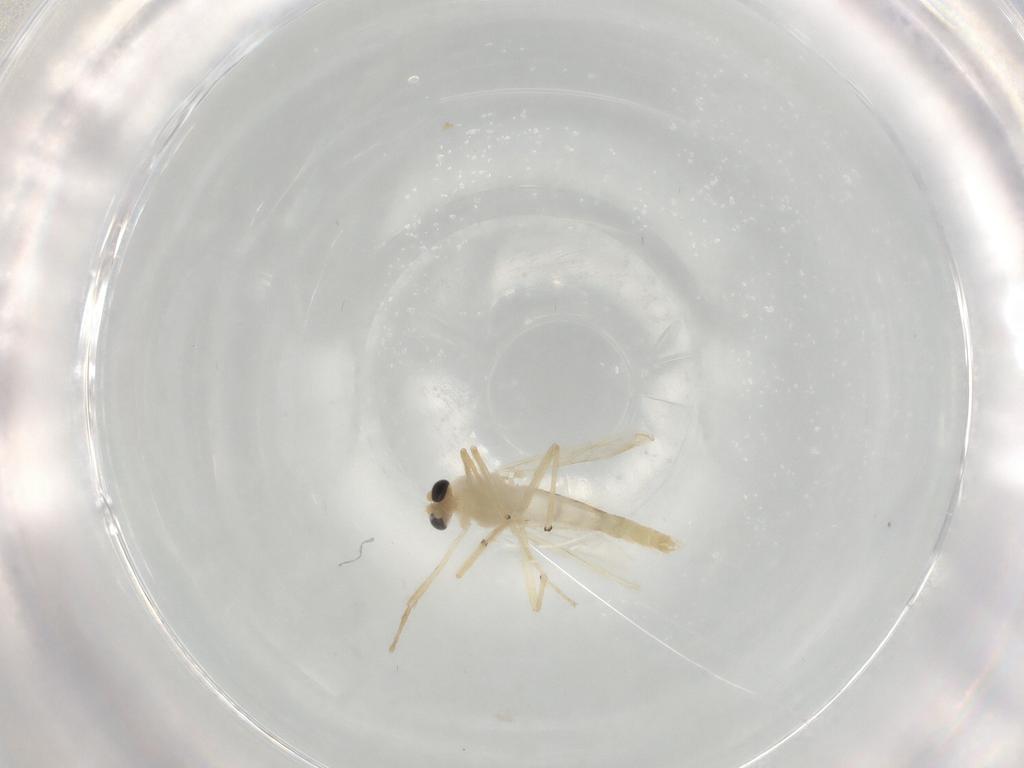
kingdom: Animalia
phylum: Arthropoda
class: Insecta
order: Diptera
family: Chironomidae
